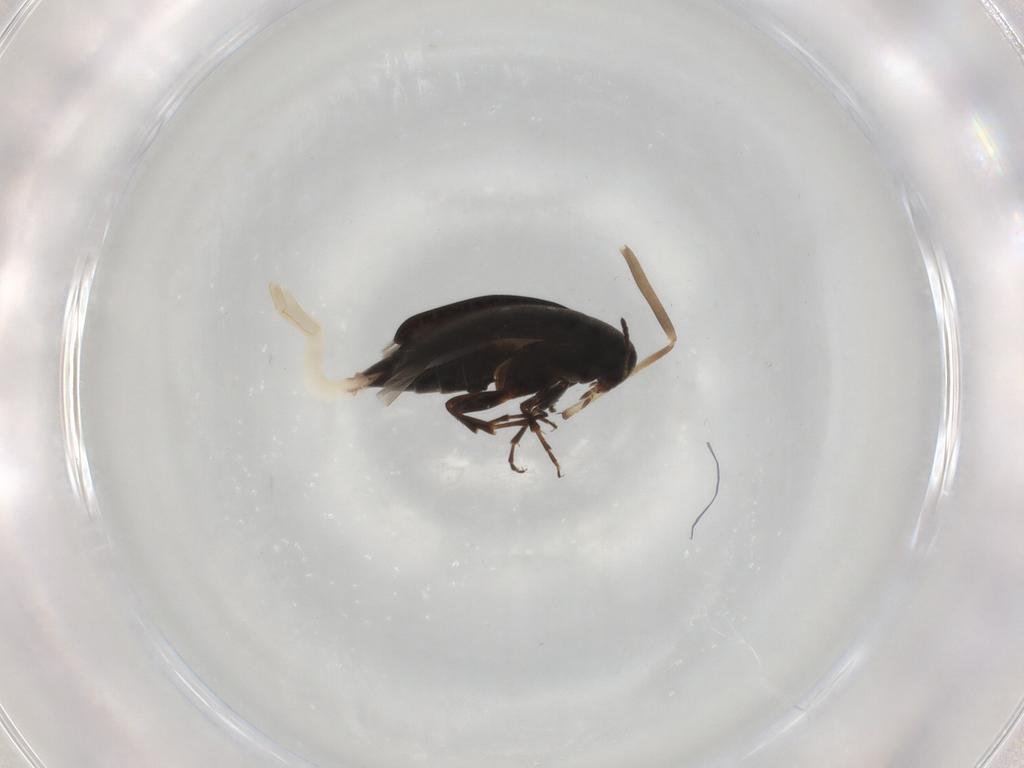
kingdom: Animalia
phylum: Arthropoda
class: Insecta
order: Coleoptera
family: Scraptiidae
